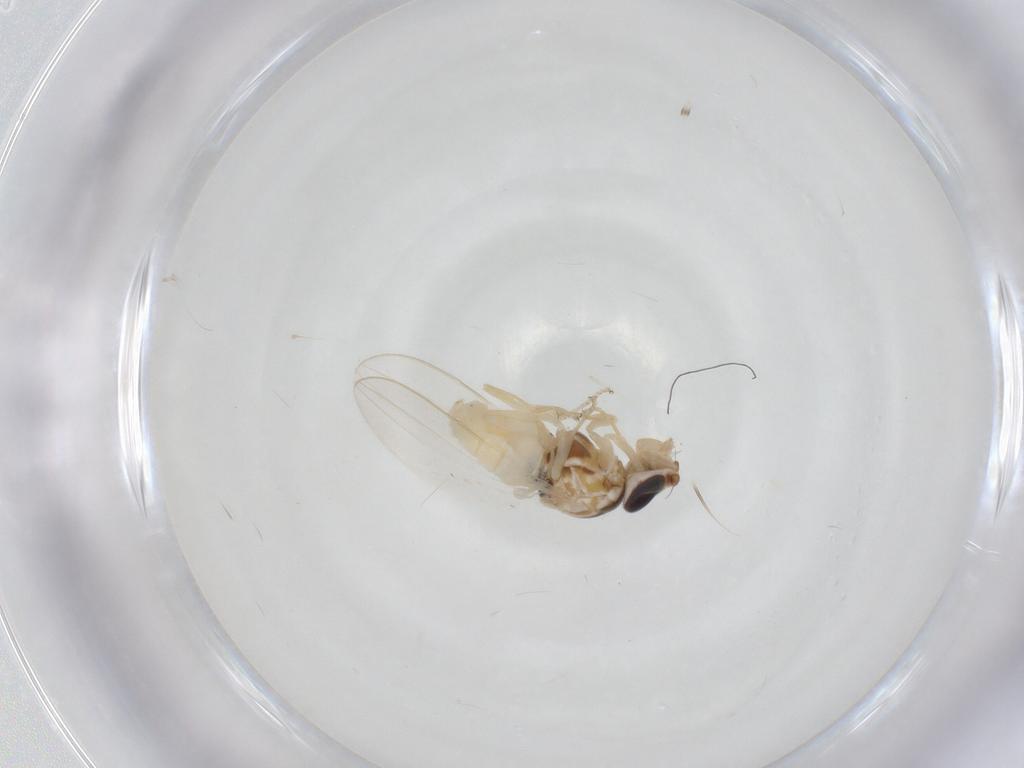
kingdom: Animalia
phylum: Arthropoda
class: Insecta
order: Diptera
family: Chloropidae
